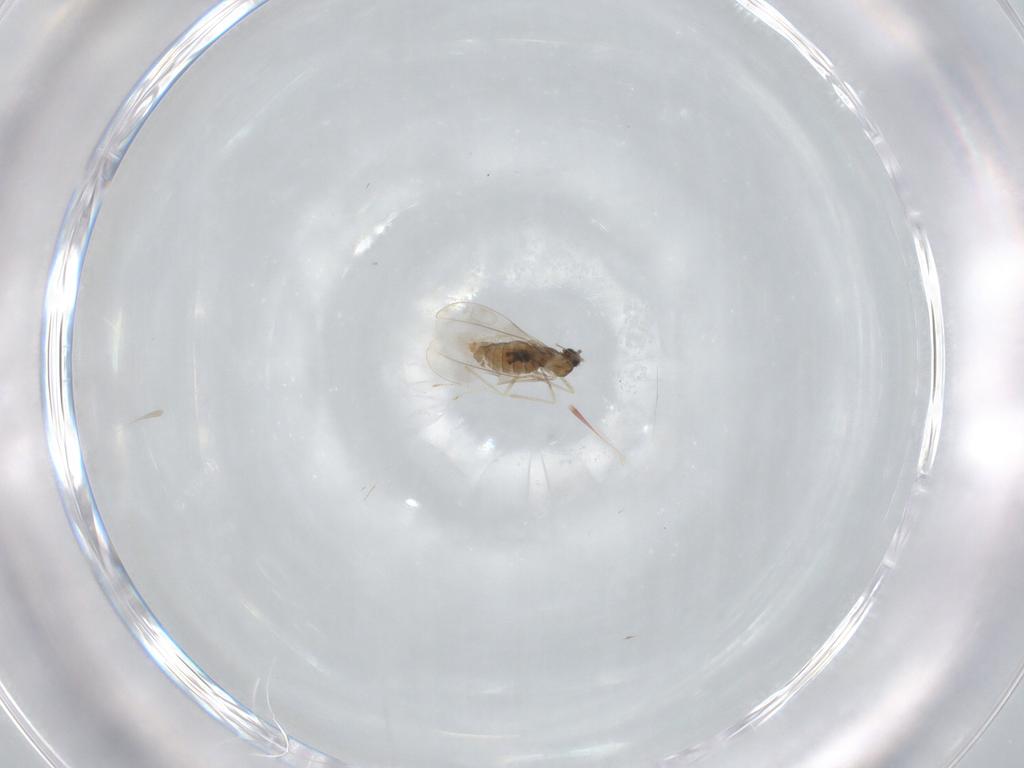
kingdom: Animalia
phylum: Arthropoda
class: Insecta
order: Diptera
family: Cecidomyiidae
